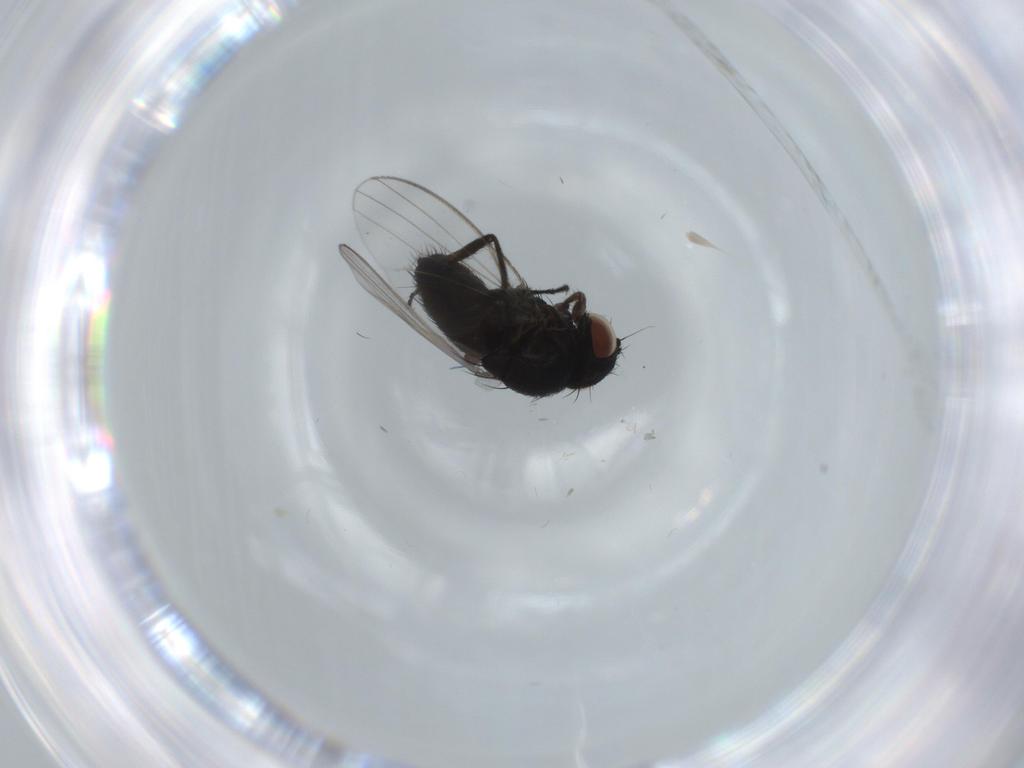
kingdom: Animalia
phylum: Arthropoda
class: Insecta
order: Diptera
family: Milichiidae
